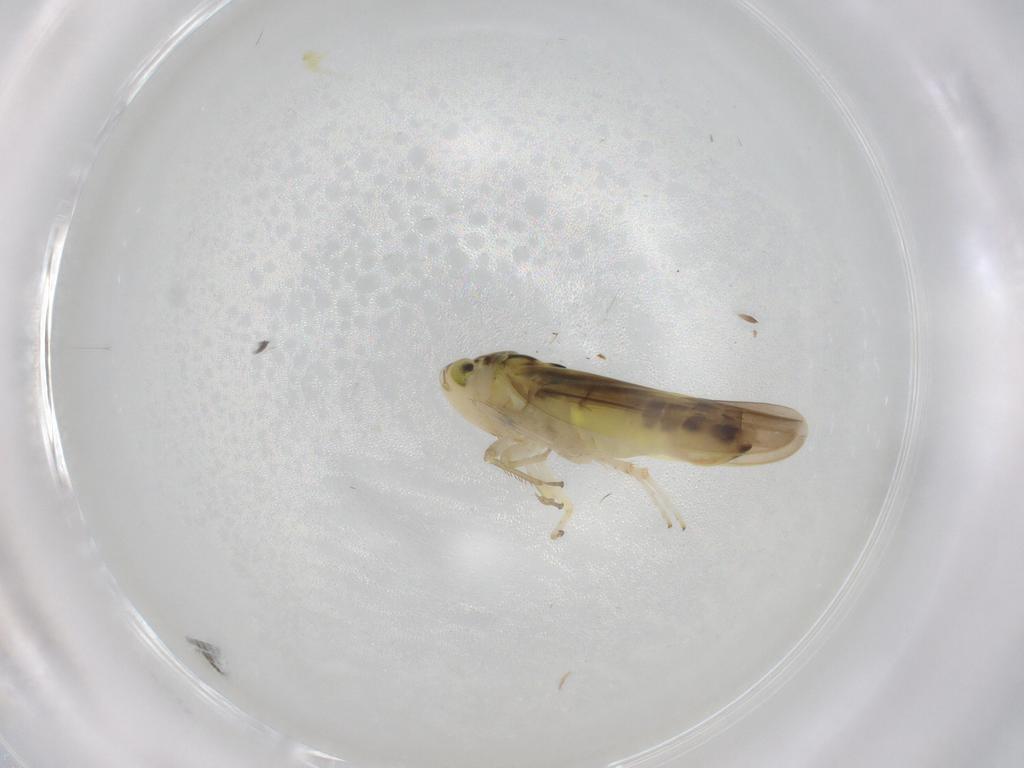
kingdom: Animalia
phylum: Arthropoda
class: Insecta
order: Hemiptera
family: Cicadellidae
